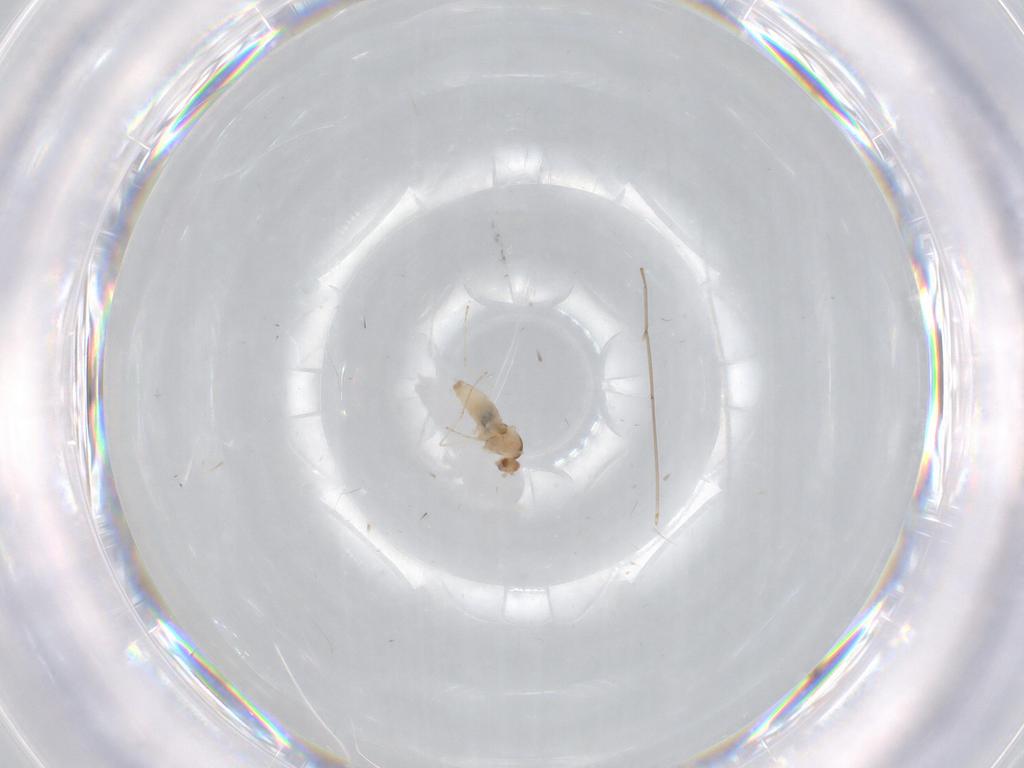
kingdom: Animalia
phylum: Arthropoda
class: Insecta
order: Diptera
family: Cecidomyiidae
